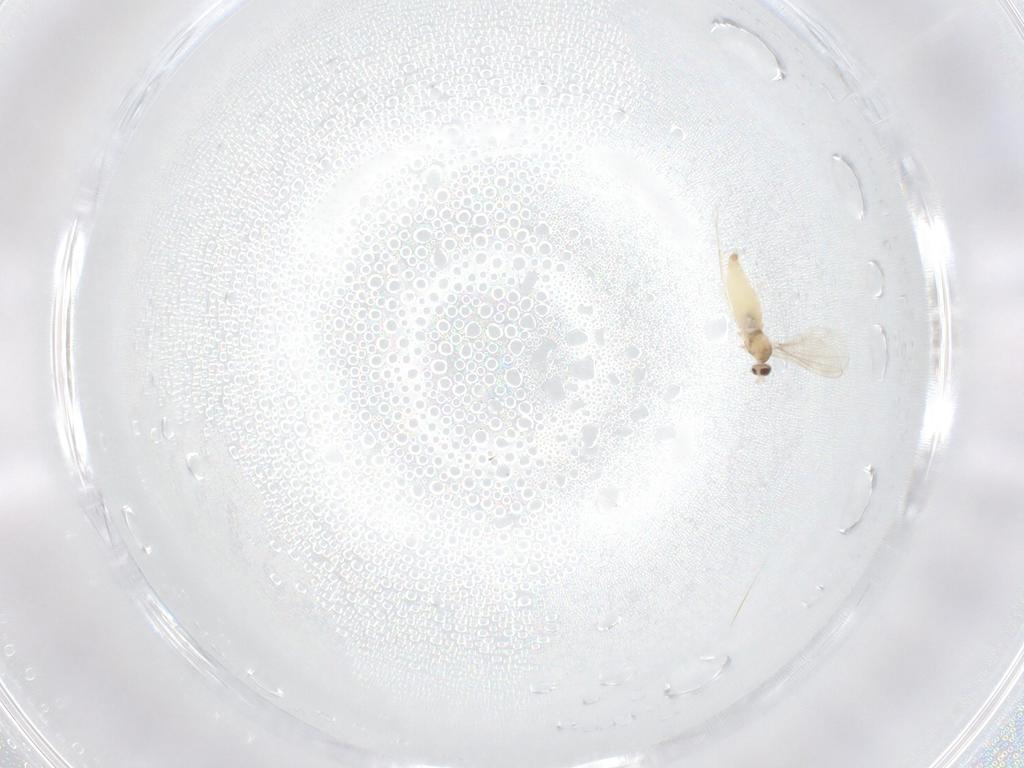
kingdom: Animalia
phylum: Arthropoda
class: Insecta
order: Diptera
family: Cecidomyiidae
